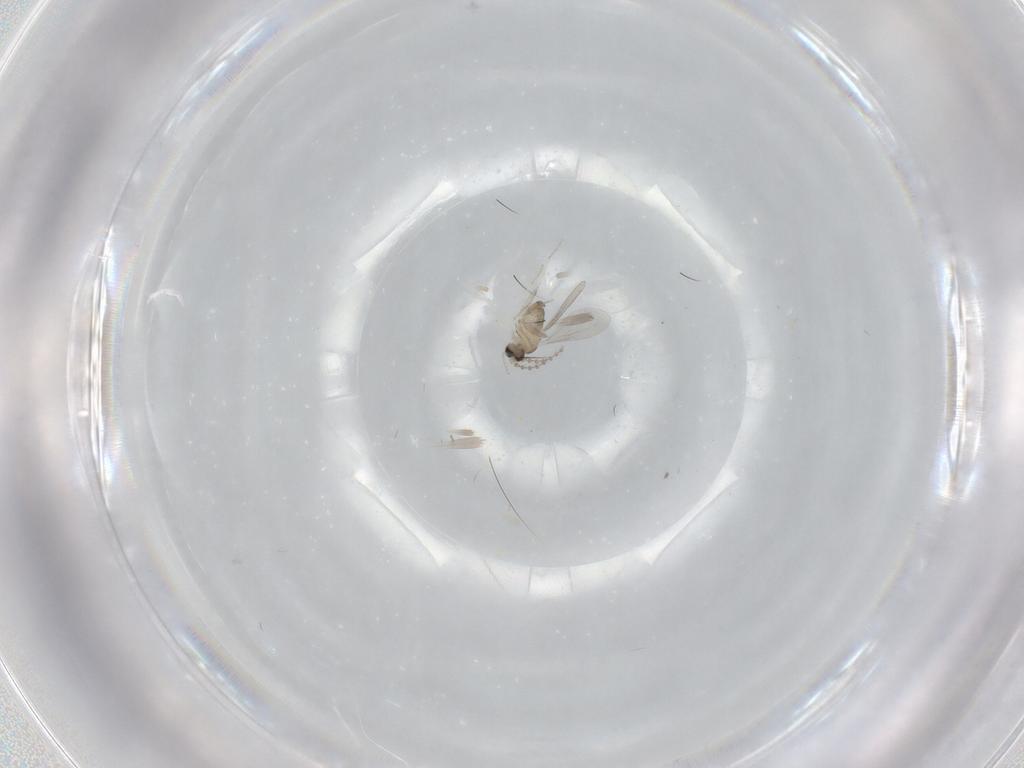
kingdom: Animalia
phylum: Arthropoda
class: Insecta
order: Diptera
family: Cecidomyiidae
